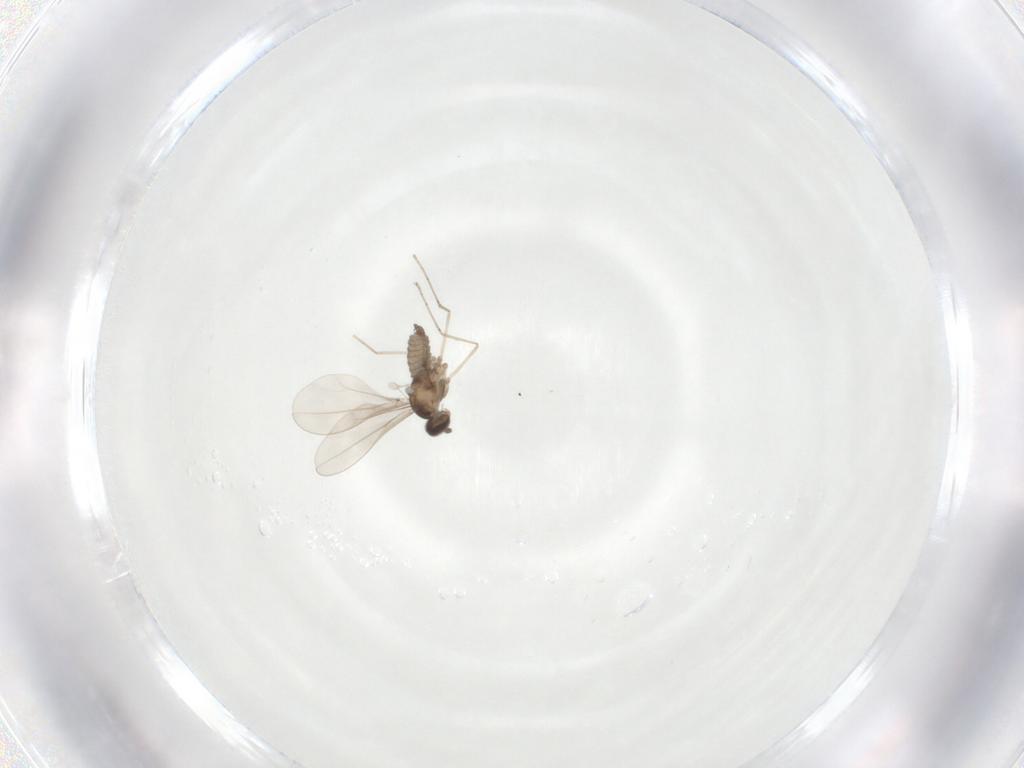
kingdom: Animalia
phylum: Arthropoda
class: Insecta
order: Diptera
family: Cecidomyiidae
